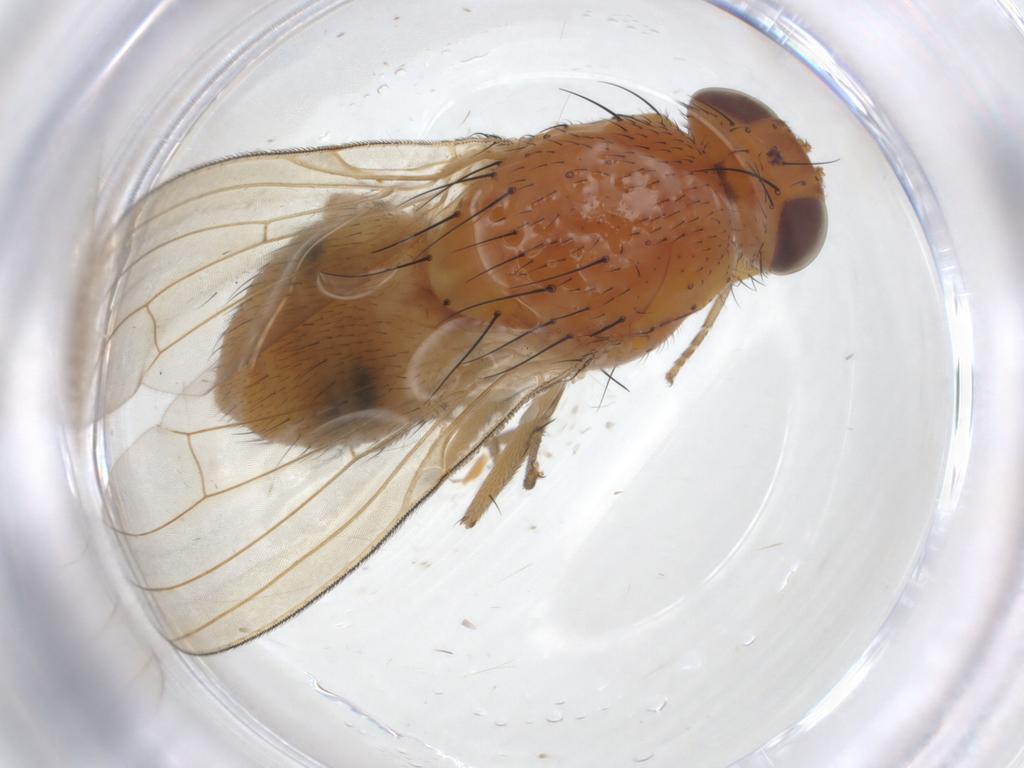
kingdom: Animalia
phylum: Arthropoda
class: Insecta
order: Diptera
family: Lauxaniidae
